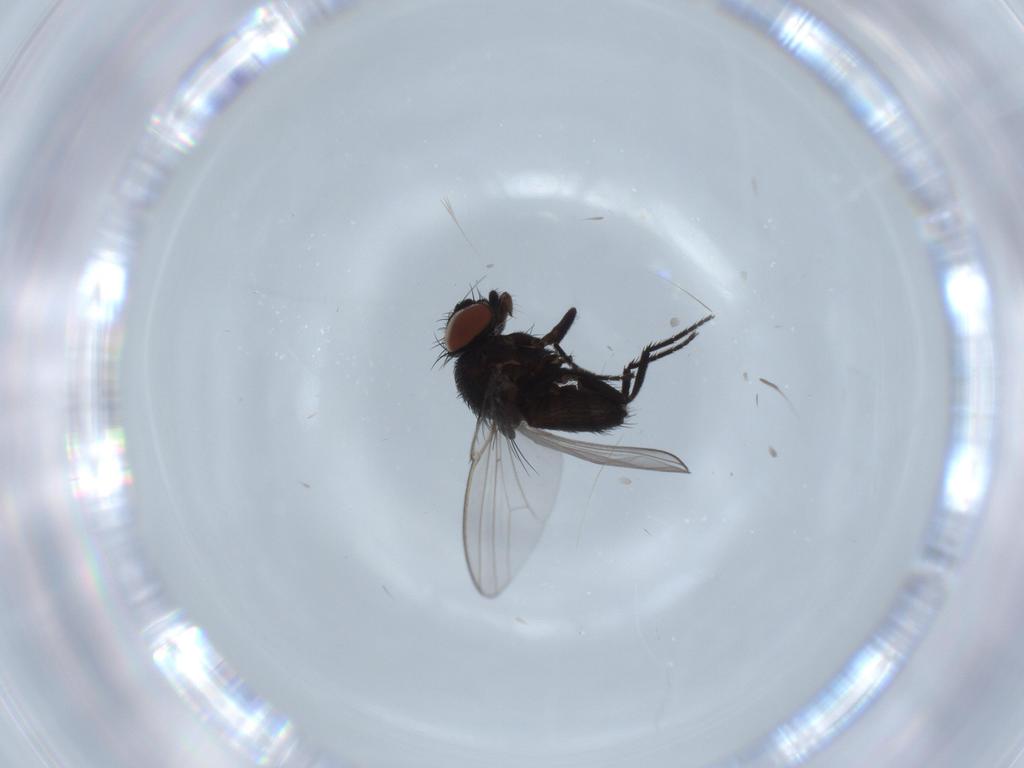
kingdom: Animalia
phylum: Arthropoda
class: Insecta
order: Diptera
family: Milichiidae
